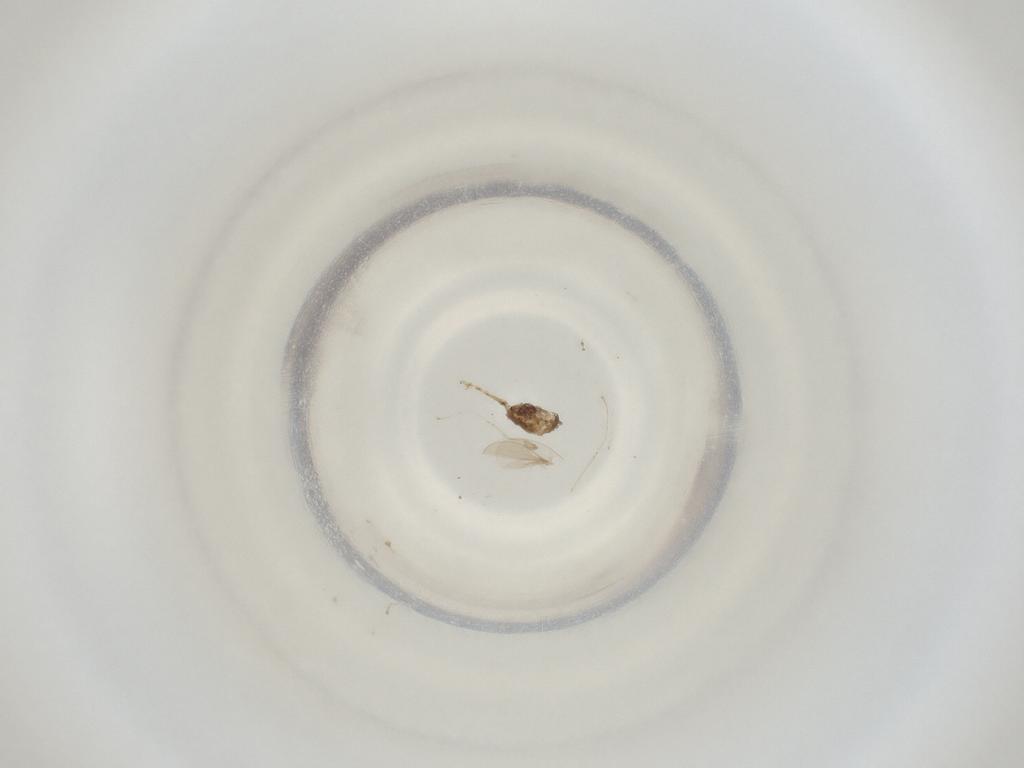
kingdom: Animalia
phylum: Arthropoda
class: Insecta
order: Diptera
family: Cecidomyiidae
